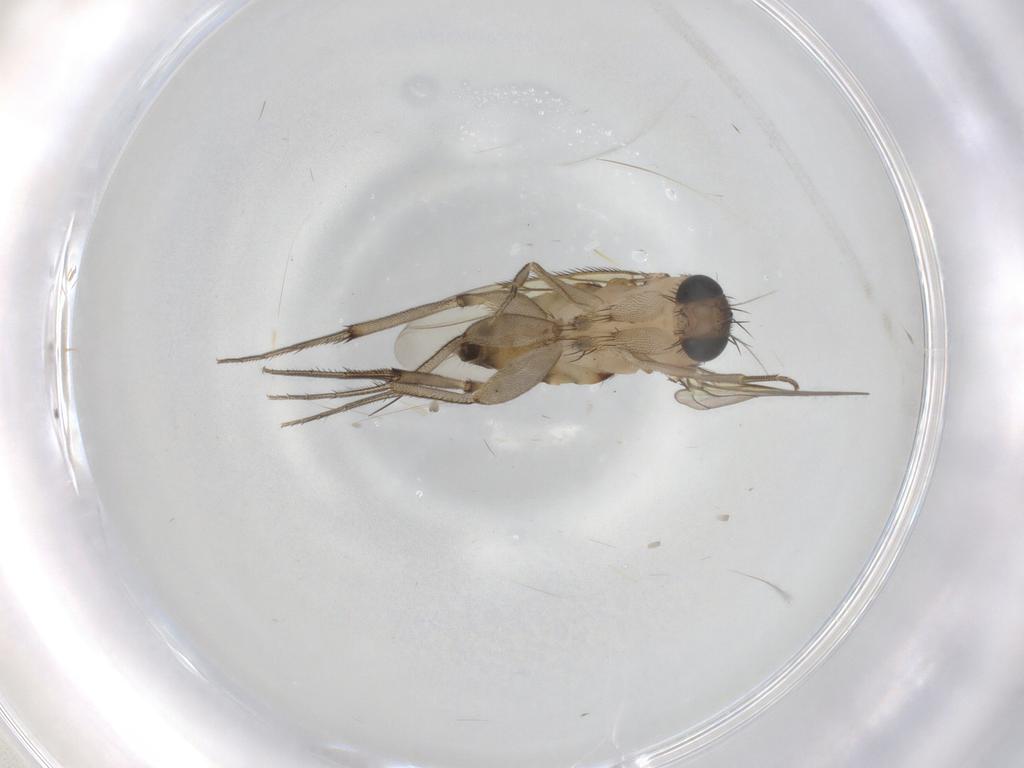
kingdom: Animalia
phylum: Arthropoda
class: Insecta
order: Diptera
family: Phoridae
